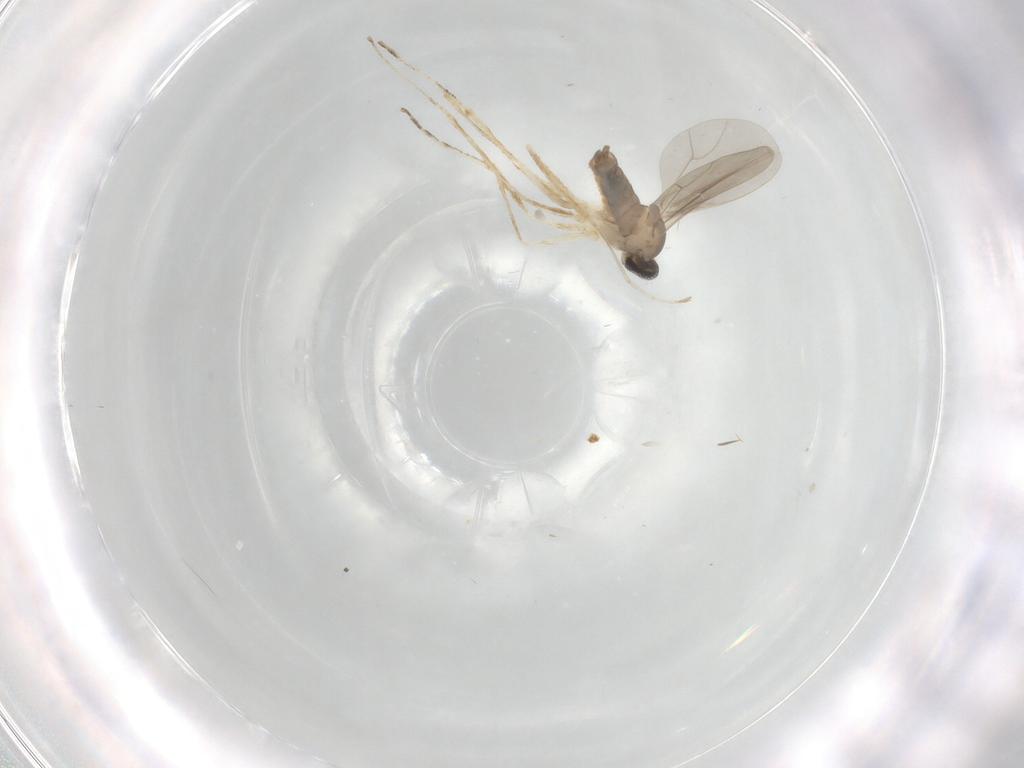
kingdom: Animalia
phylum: Arthropoda
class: Insecta
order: Diptera
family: Psychodidae
